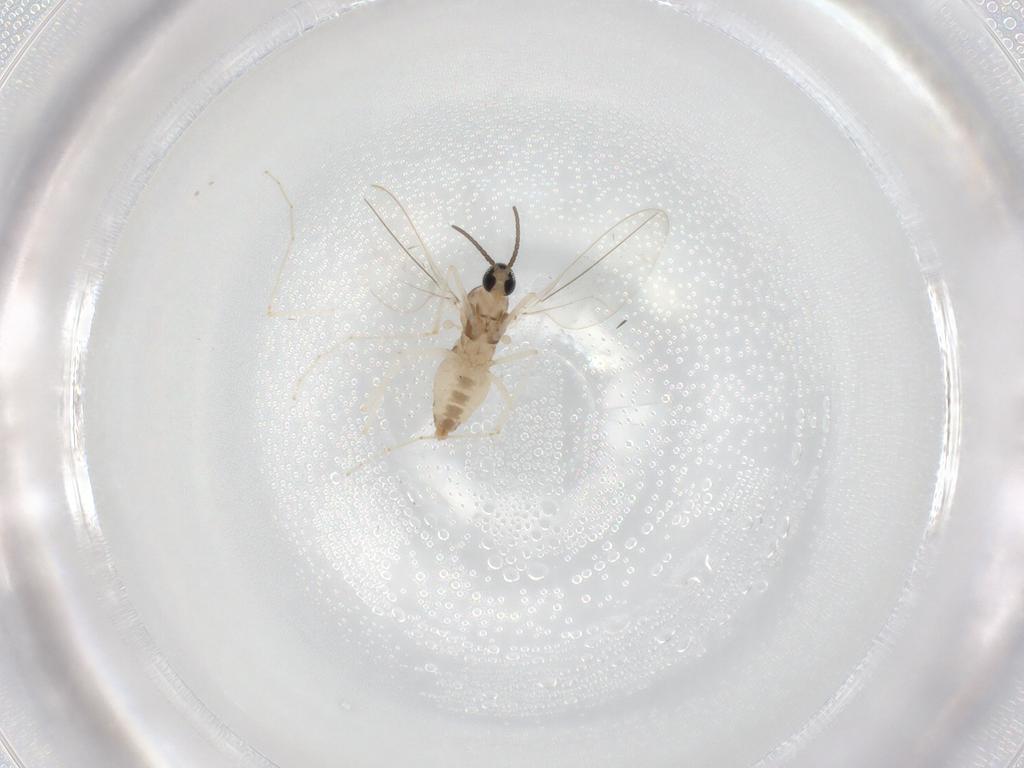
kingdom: Animalia
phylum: Arthropoda
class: Insecta
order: Diptera
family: Cecidomyiidae
